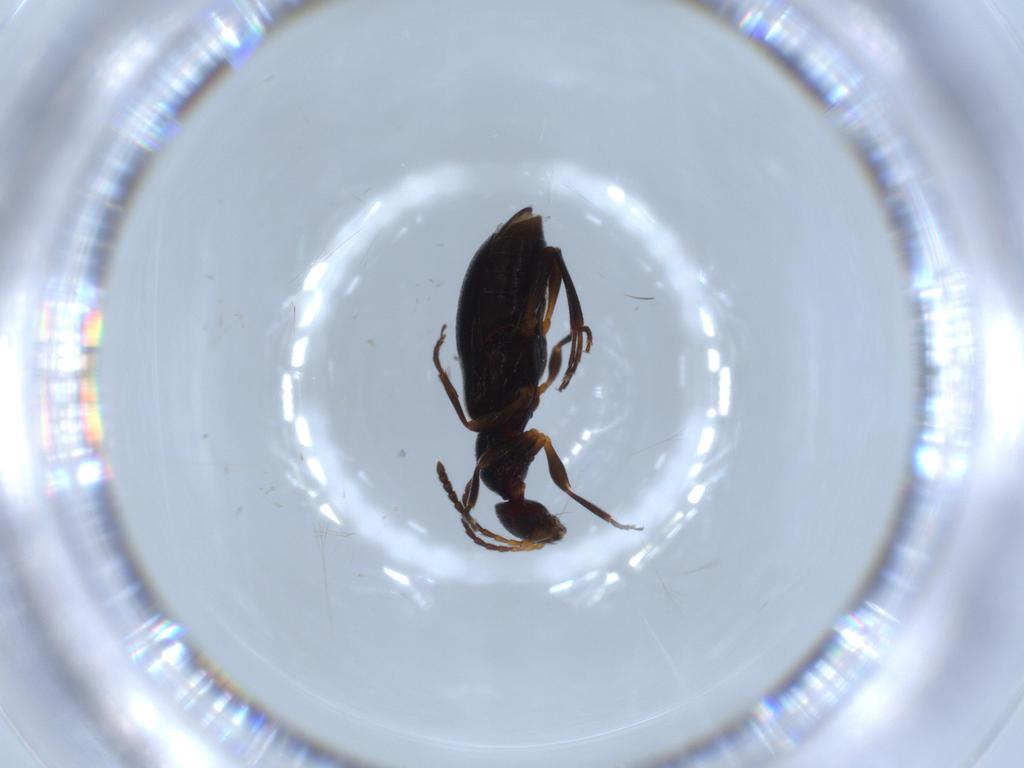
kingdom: Animalia
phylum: Arthropoda
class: Insecta
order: Coleoptera
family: Anthicidae
